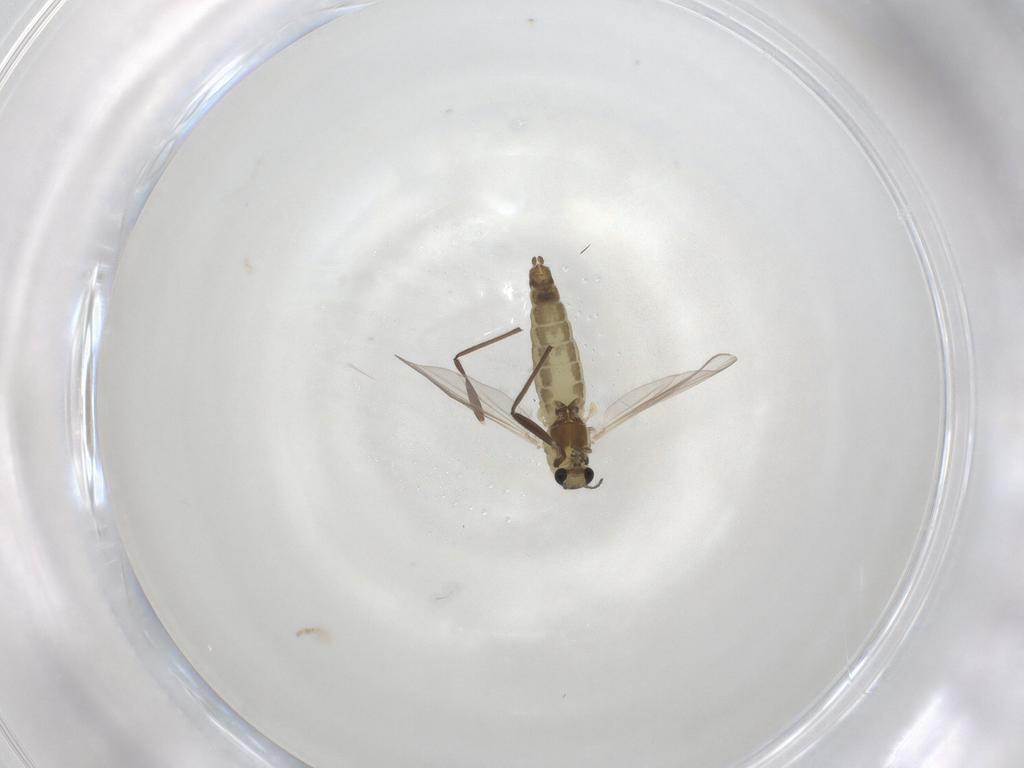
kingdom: Animalia
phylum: Arthropoda
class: Insecta
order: Diptera
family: Chironomidae
